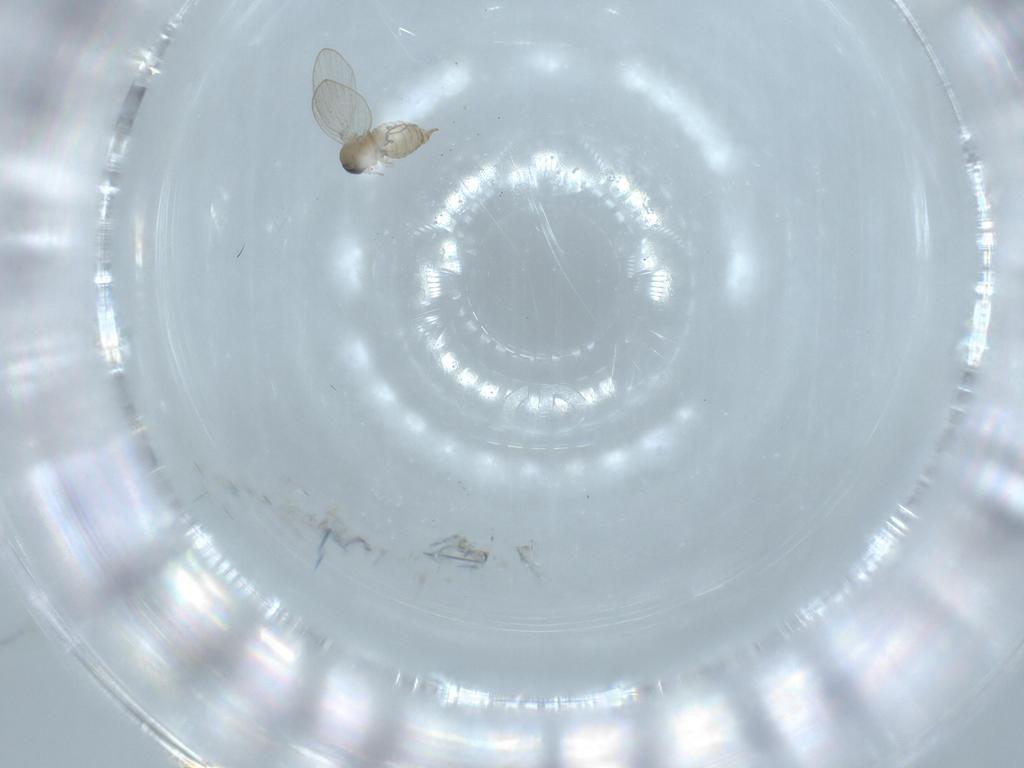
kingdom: Animalia
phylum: Arthropoda
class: Insecta
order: Diptera
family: Psychodidae
